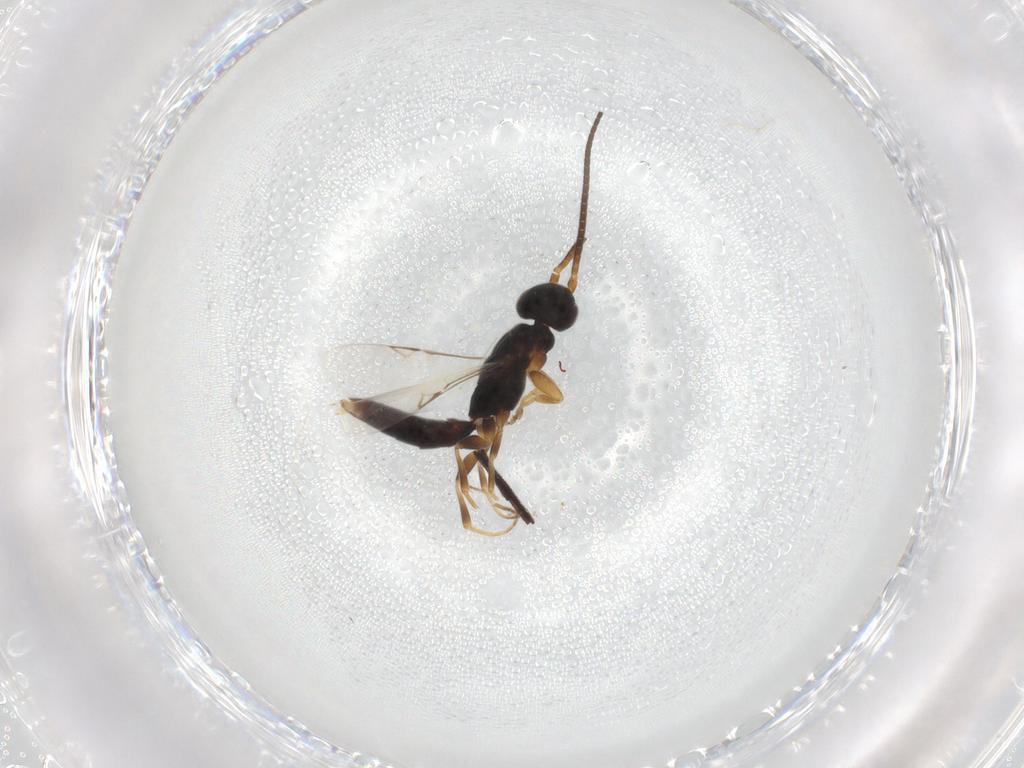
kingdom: Animalia
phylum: Arthropoda
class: Insecta
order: Hymenoptera
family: Sclerogibbidae
